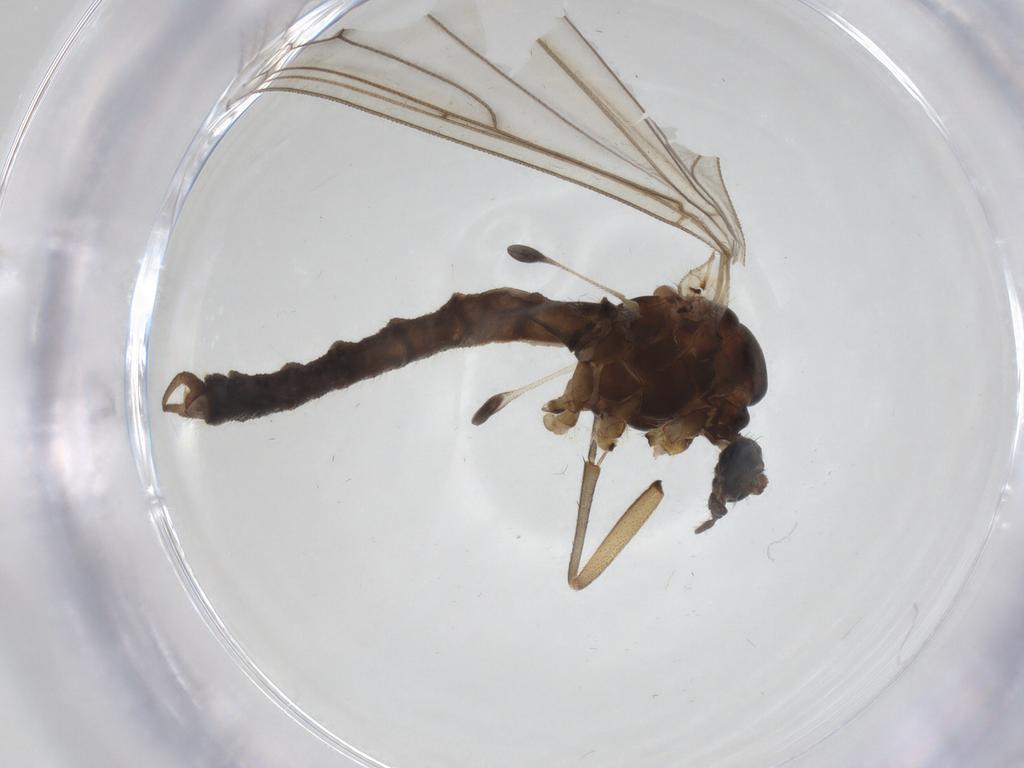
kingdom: Animalia
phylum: Arthropoda
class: Insecta
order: Diptera
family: Trichoceridae
